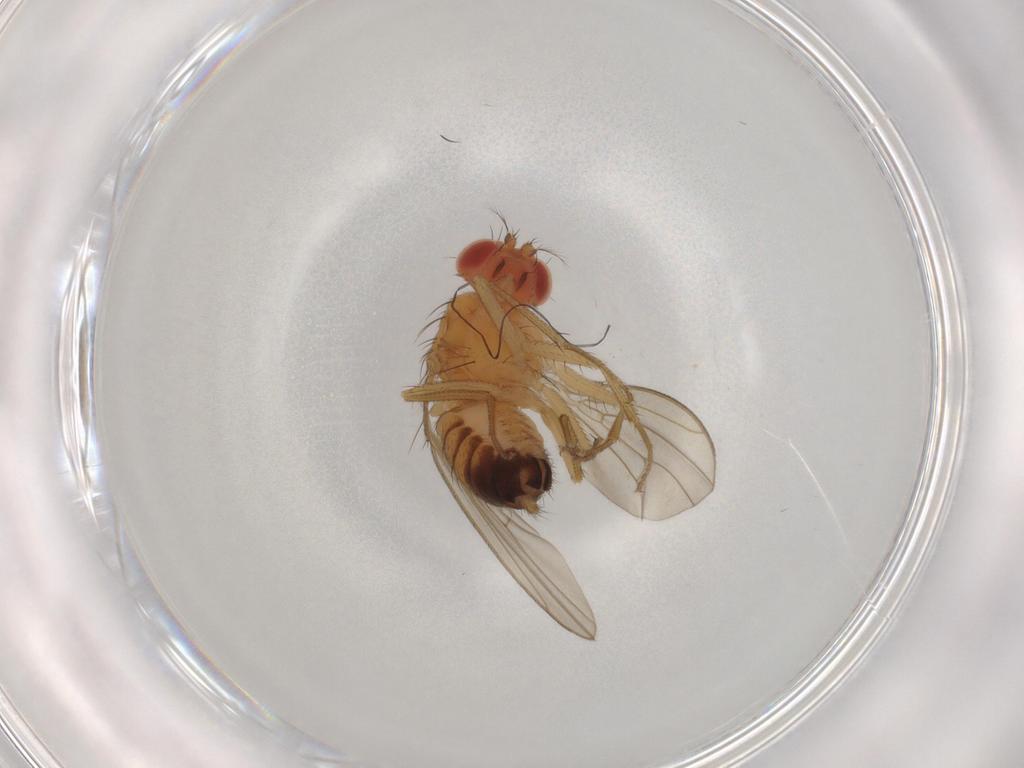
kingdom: Animalia
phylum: Arthropoda
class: Insecta
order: Diptera
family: Drosophilidae
